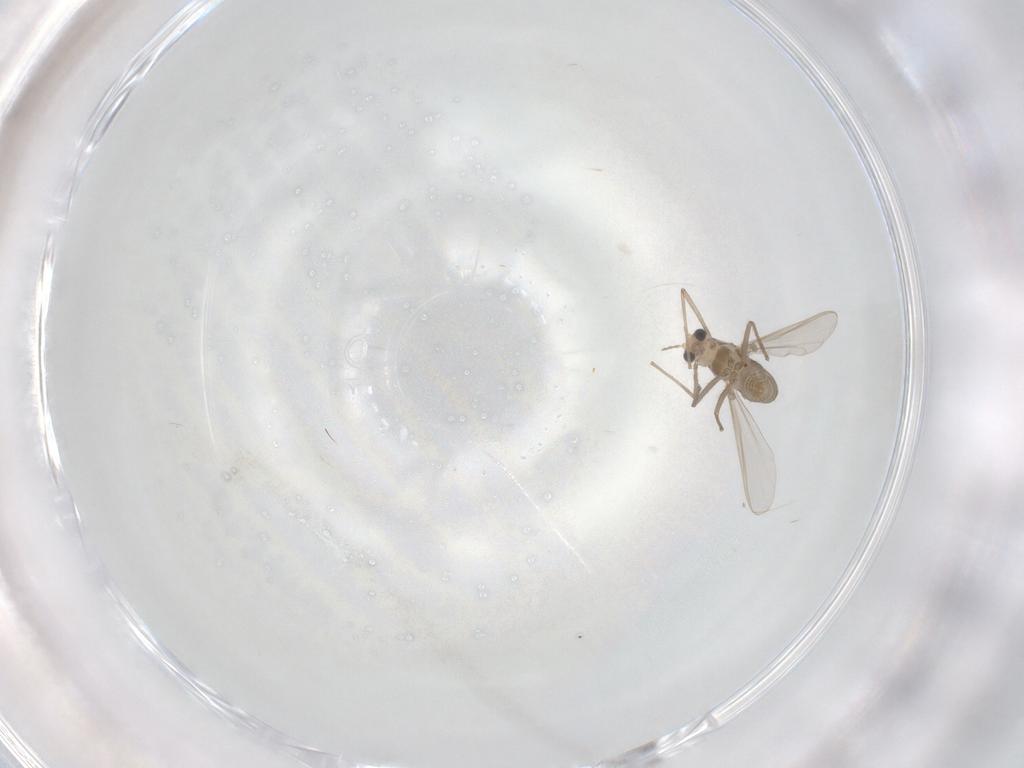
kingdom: Animalia
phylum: Arthropoda
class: Insecta
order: Diptera
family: Chironomidae
